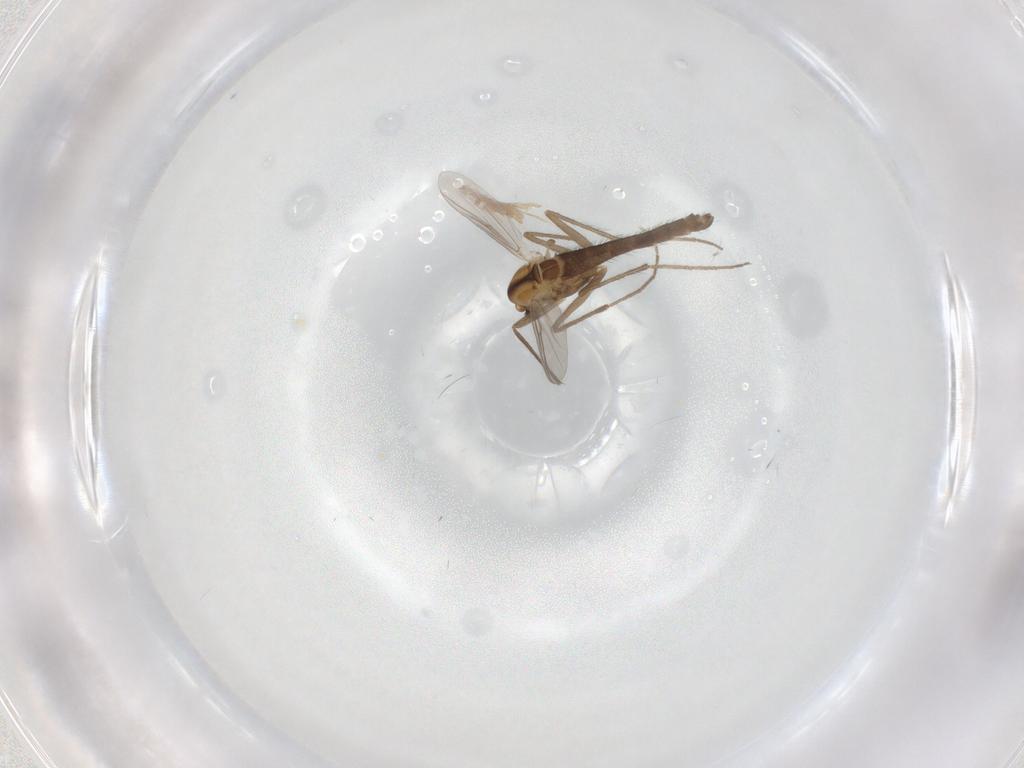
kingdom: Animalia
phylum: Arthropoda
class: Insecta
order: Diptera
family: Chironomidae
